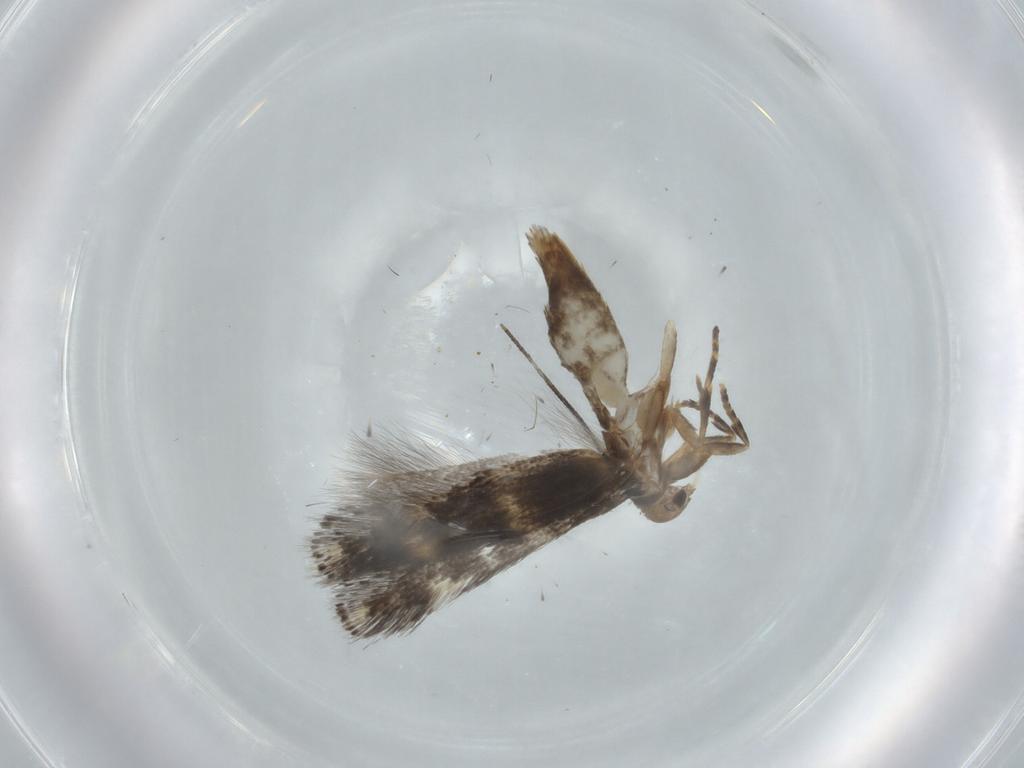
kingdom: Animalia
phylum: Arthropoda
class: Insecta
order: Lepidoptera
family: Elachistidae
